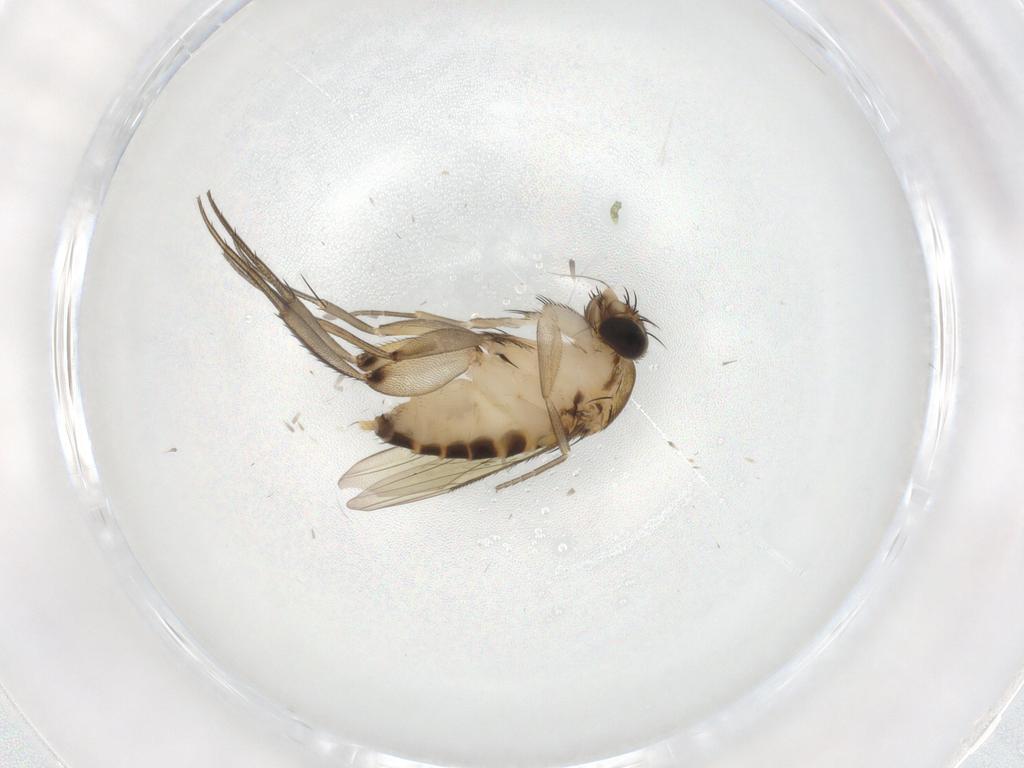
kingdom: Animalia
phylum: Arthropoda
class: Insecta
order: Diptera
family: Phoridae
